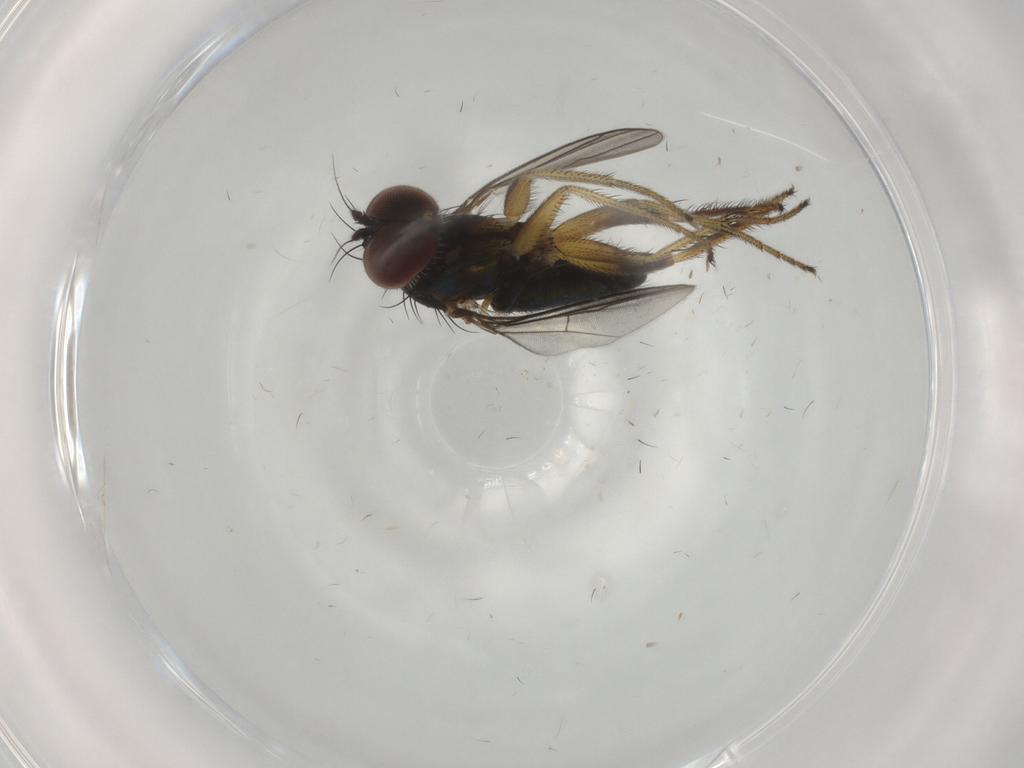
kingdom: Animalia
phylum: Arthropoda
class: Insecta
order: Diptera
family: Dolichopodidae
